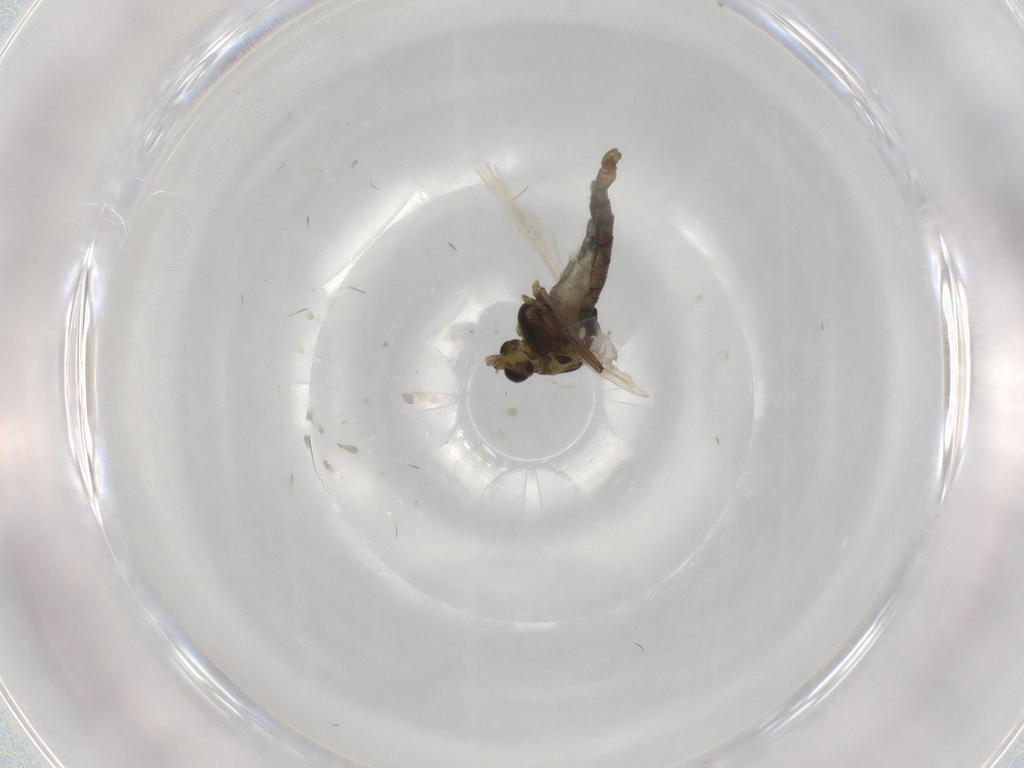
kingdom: Animalia
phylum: Arthropoda
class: Insecta
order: Diptera
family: Chironomidae
